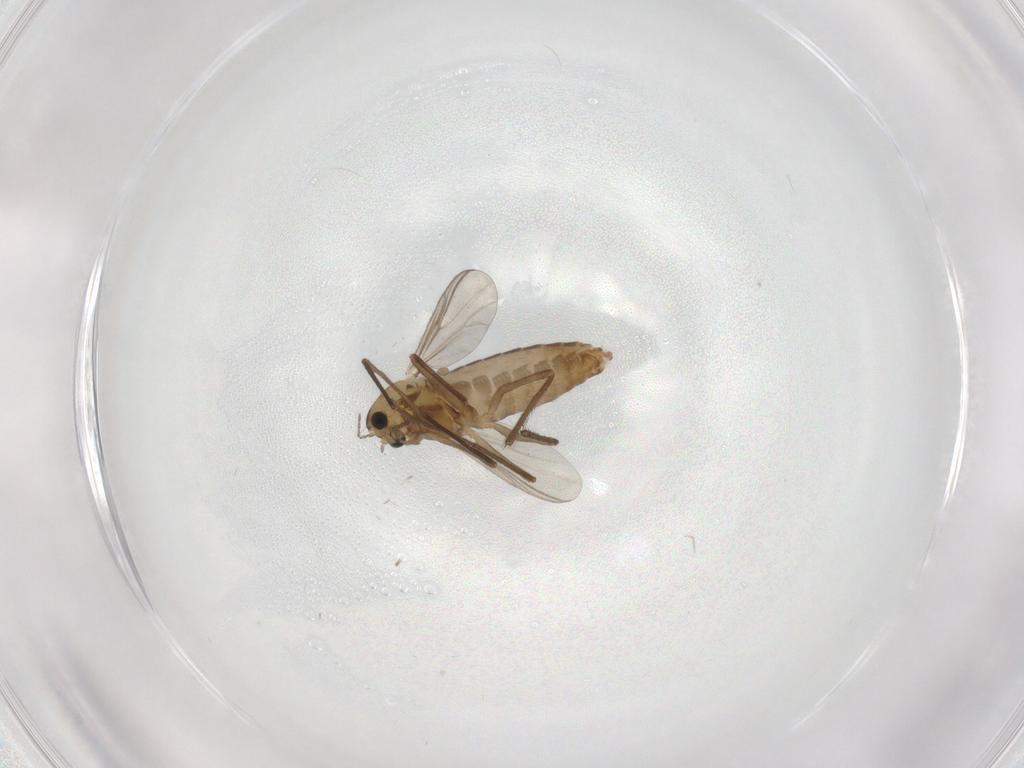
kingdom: Animalia
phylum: Arthropoda
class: Insecta
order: Diptera
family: Chironomidae
